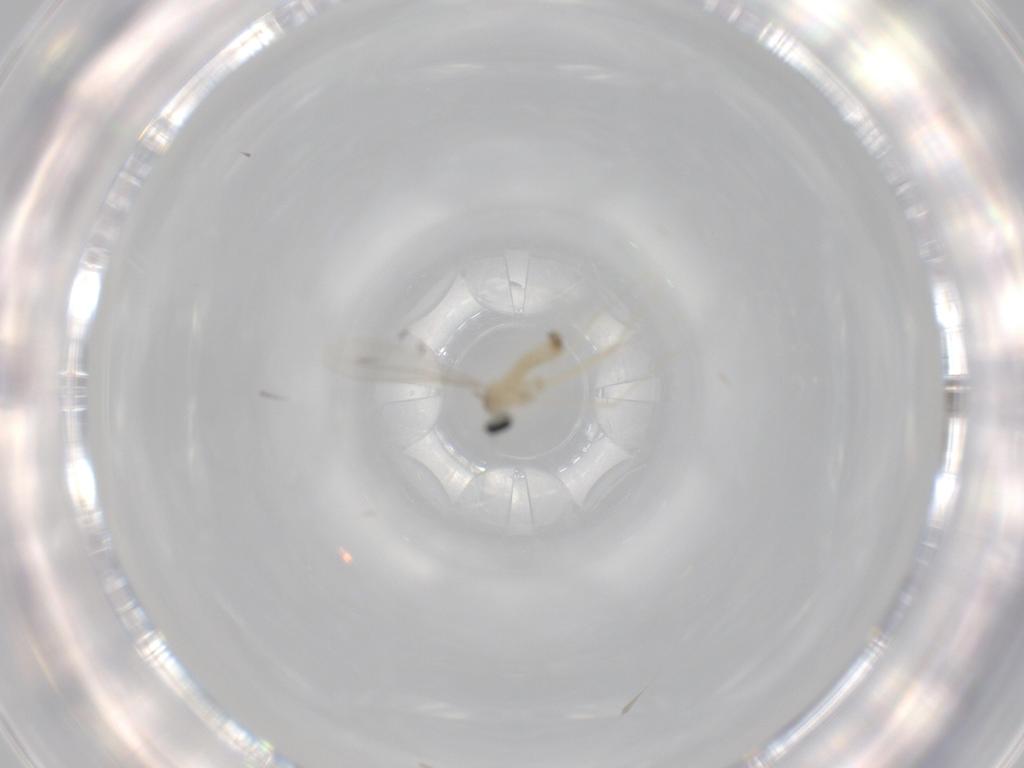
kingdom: Animalia
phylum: Arthropoda
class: Insecta
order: Diptera
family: Cecidomyiidae
